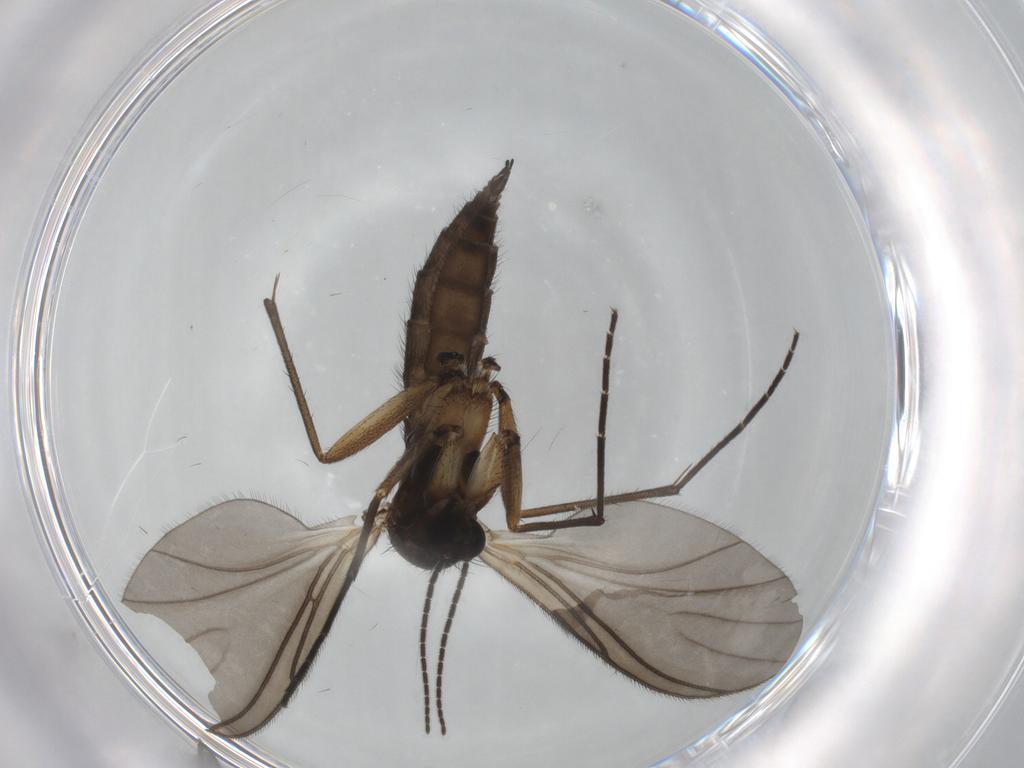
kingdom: Animalia
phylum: Arthropoda
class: Insecta
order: Diptera
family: Sciaridae
